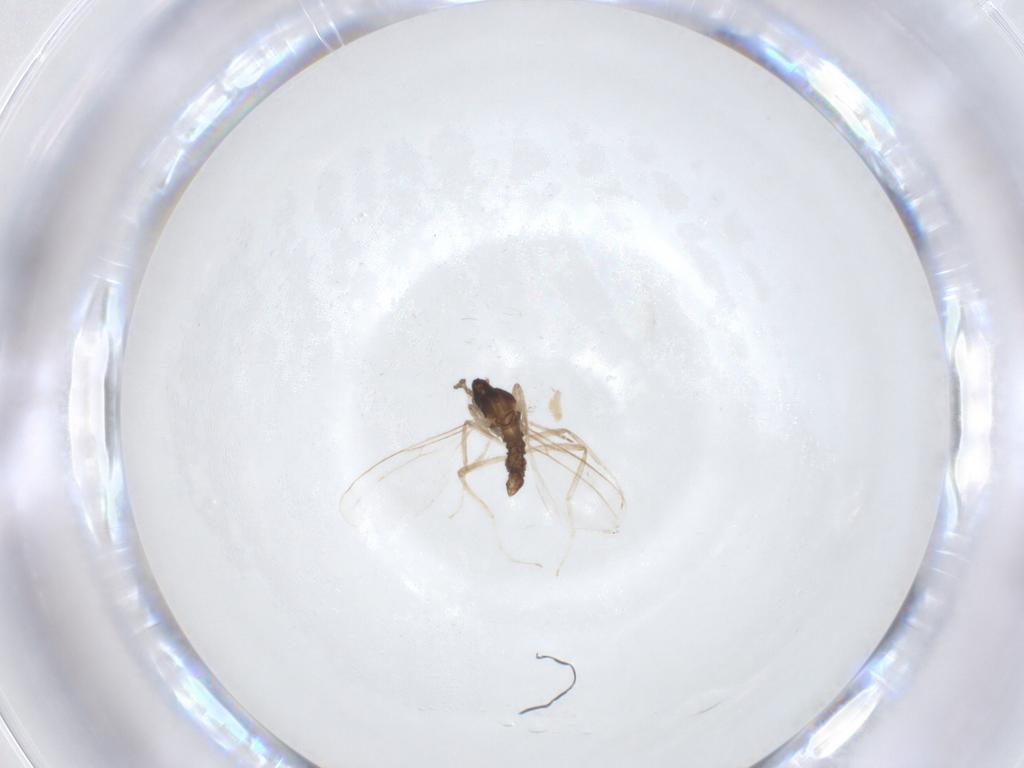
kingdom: Animalia
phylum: Arthropoda
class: Insecta
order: Diptera
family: Cecidomyiidae
